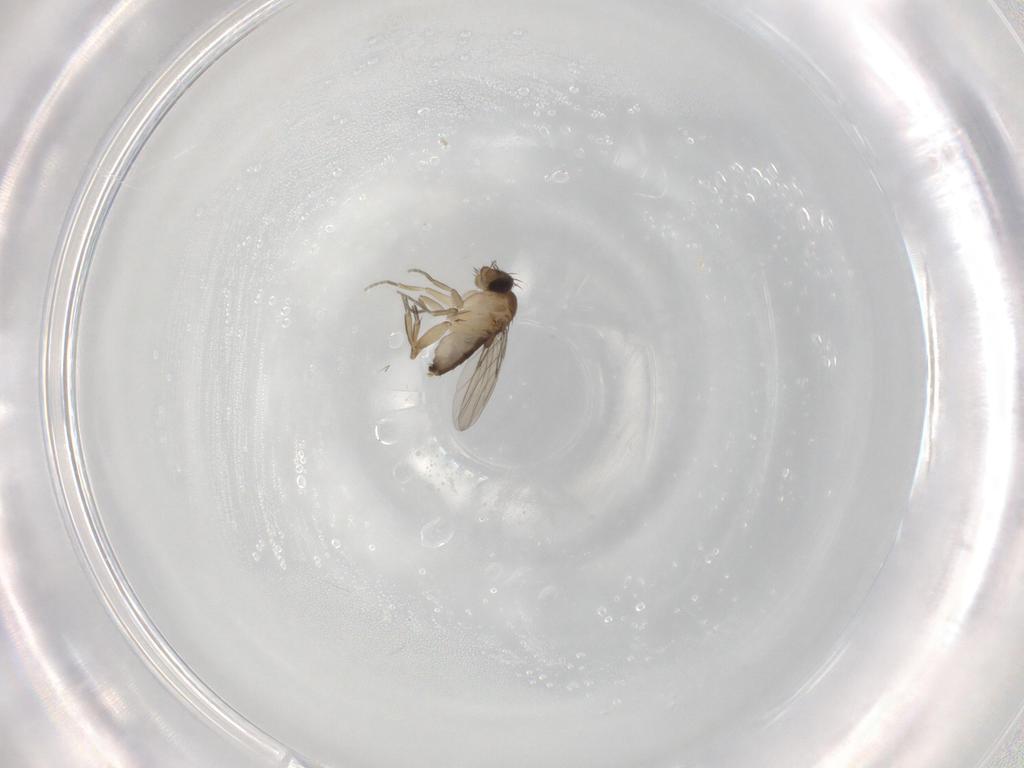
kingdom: Animalia
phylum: Arthropoda
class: Insecta
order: Diptera
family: Phoridae
